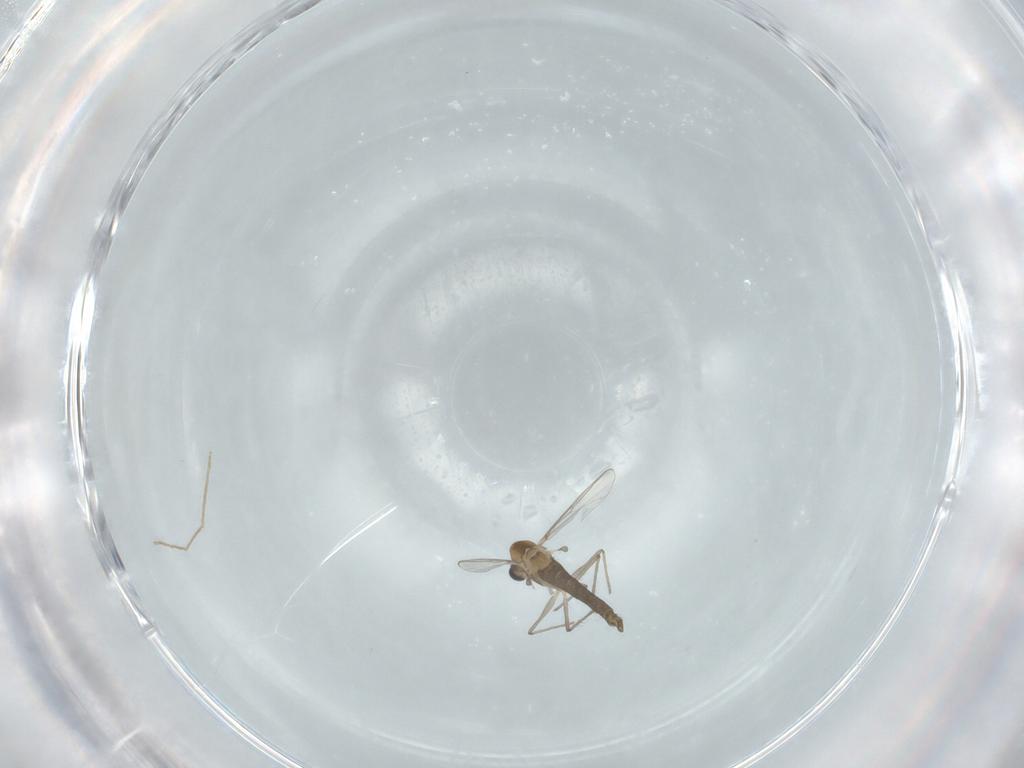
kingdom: Animalia
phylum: Arthropoda
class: Insecta
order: Diptera
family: Chironomidae
